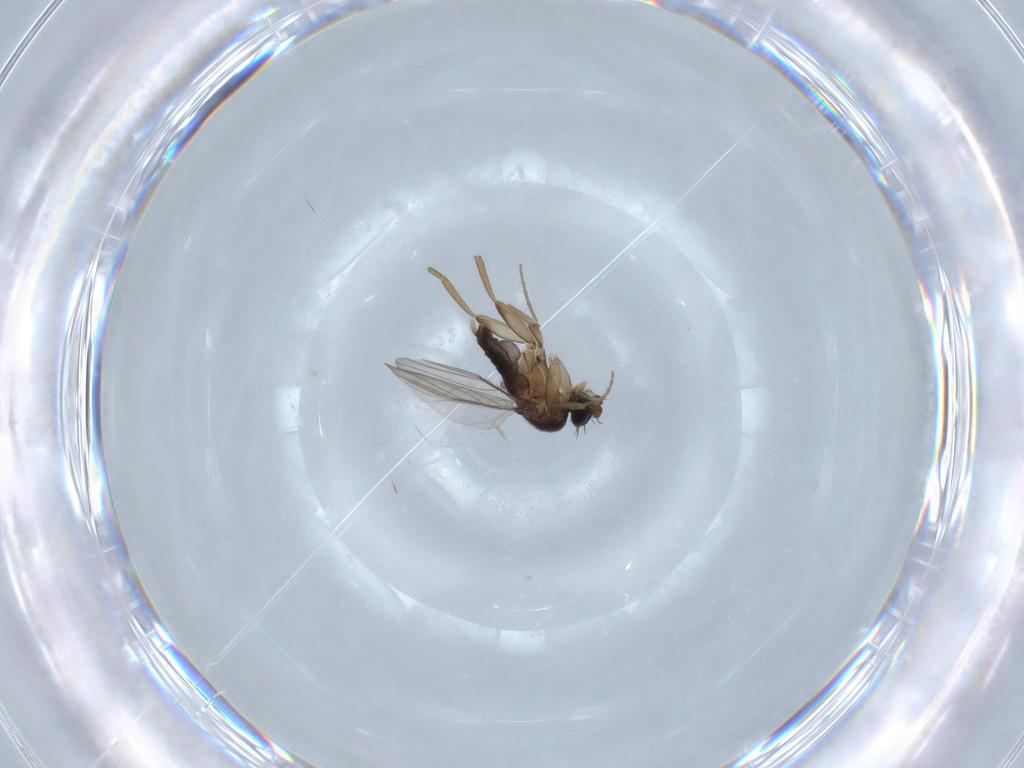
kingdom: Animalia
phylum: Arthropoda
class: Insecta
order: Diptera
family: Phoridae
